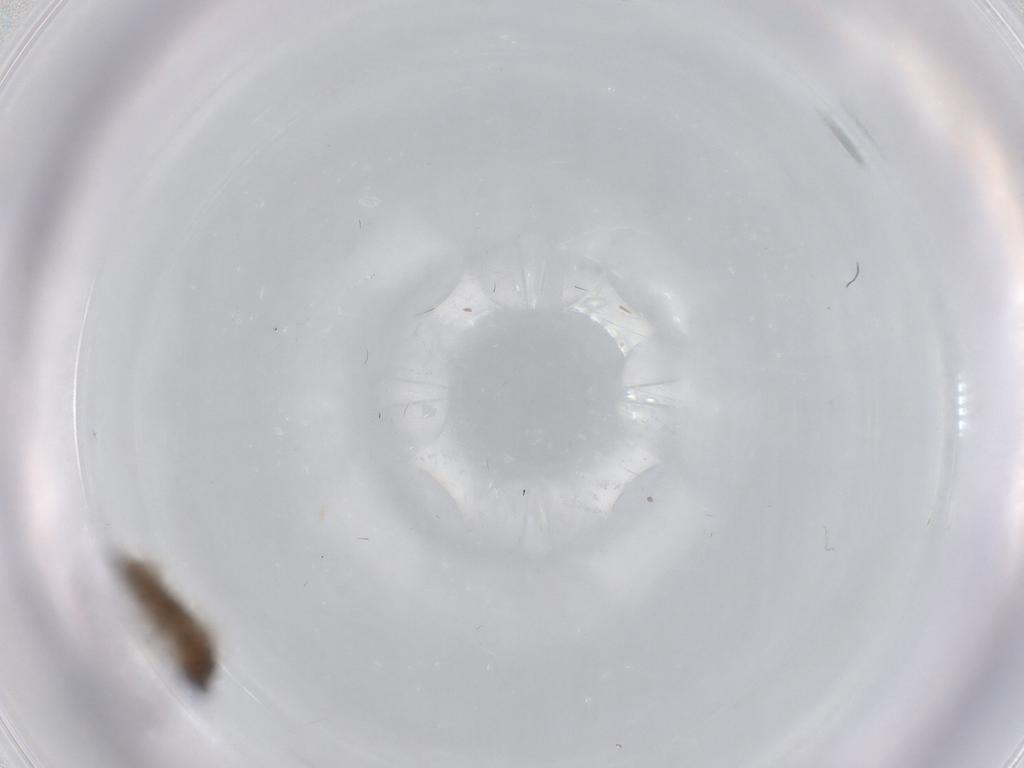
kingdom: Animalia
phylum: Arthropoda
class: Insecta
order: Diptera
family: Ceratopogonidae
